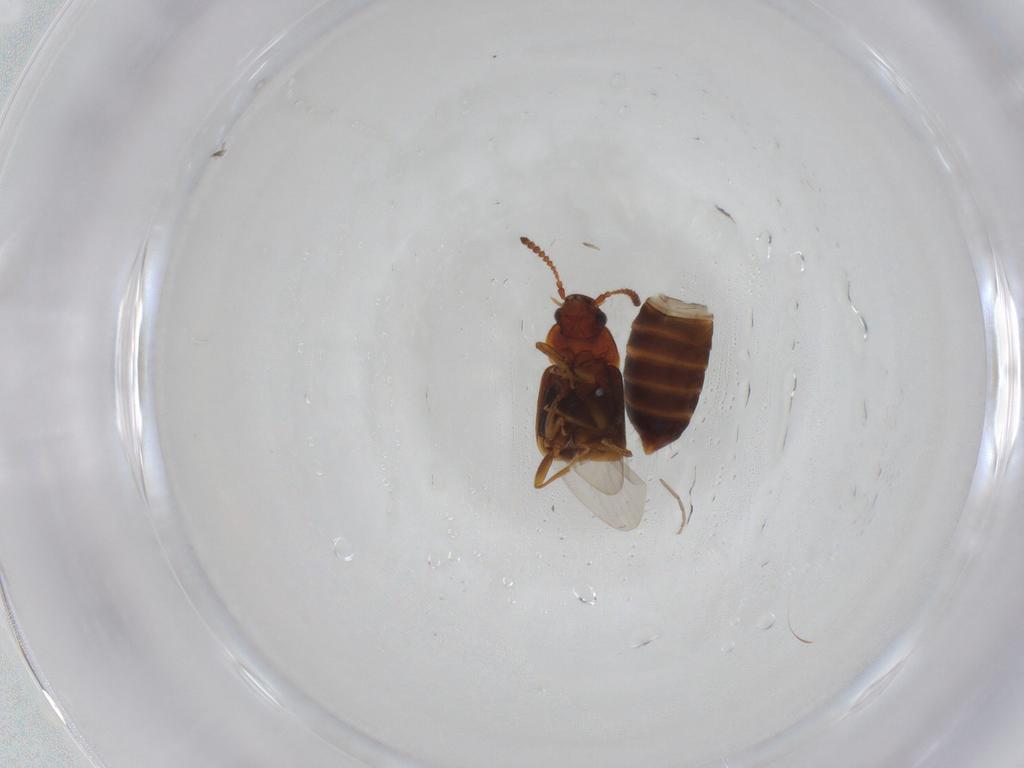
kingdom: Animalia
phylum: Arthropoda
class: Insecta
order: Coleoptera
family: Staphylinidae
